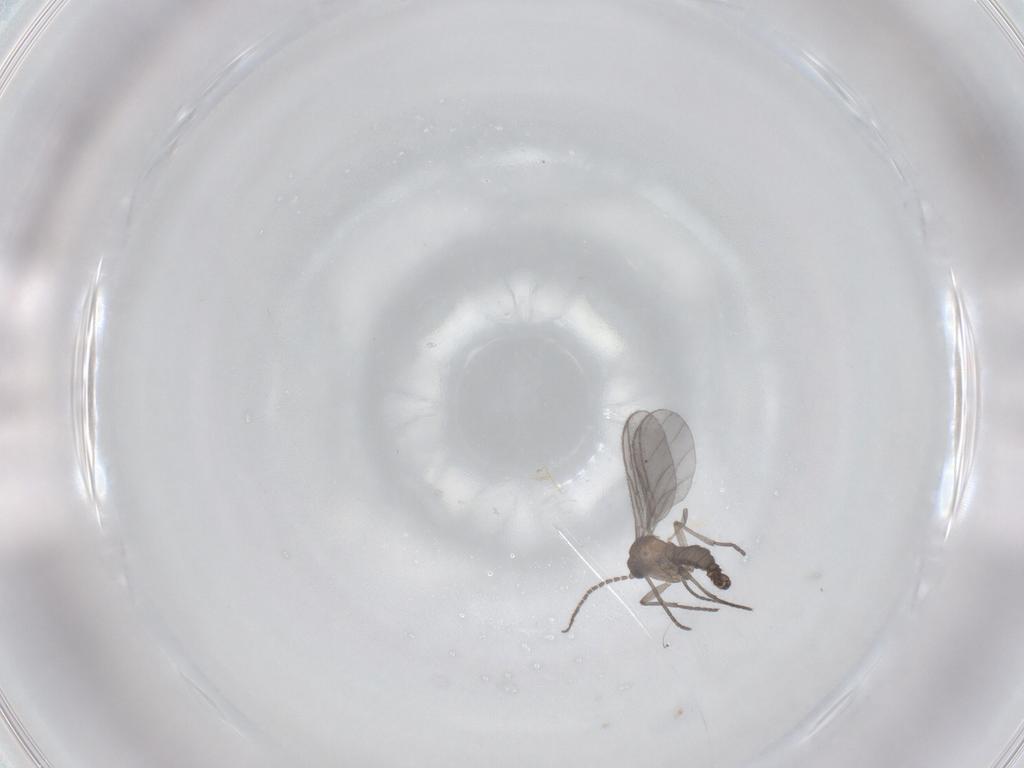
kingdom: Animalia
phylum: Arthropoda
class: Insecta
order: Diptera
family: Sciaridae
